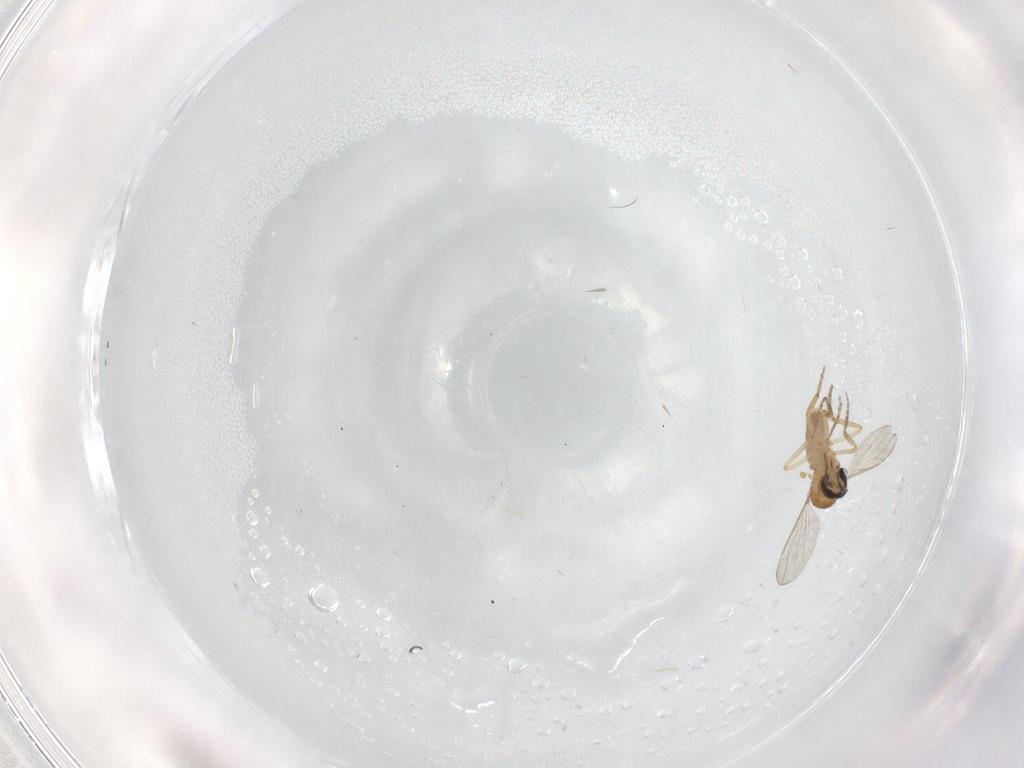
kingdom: Animalia
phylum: Arthropoda
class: Insecta
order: Diptera
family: Ceratopogonidae
